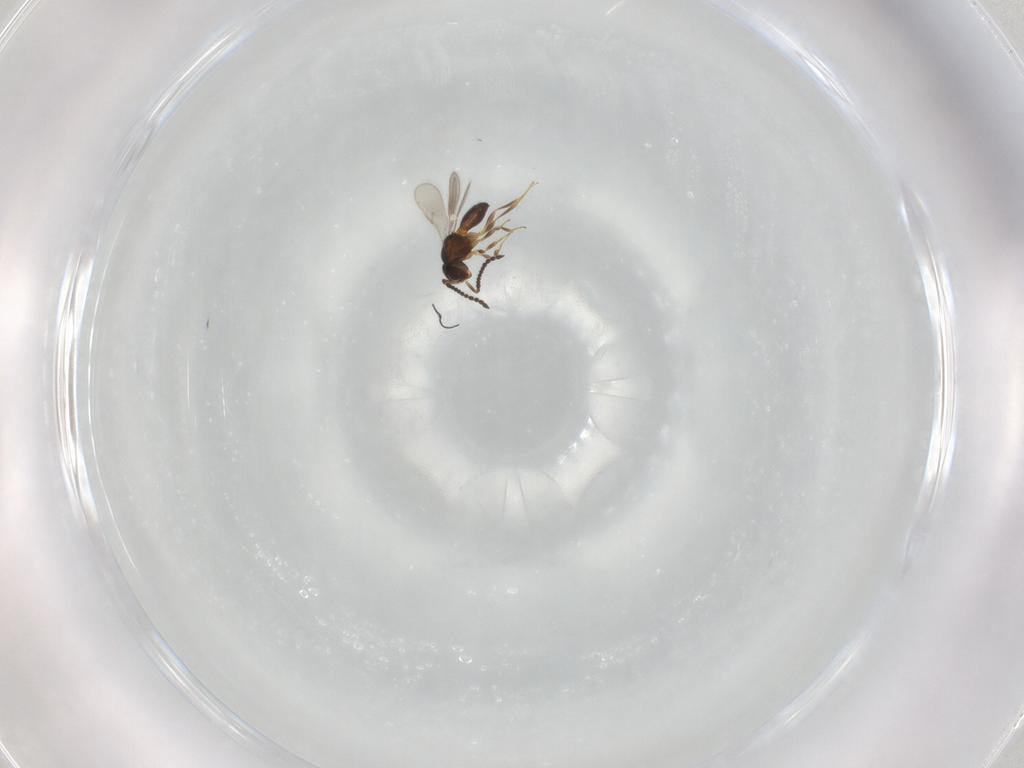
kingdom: Animalia
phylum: Arthropoda
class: Insecta
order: Hymenoptera
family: Scelionidae
